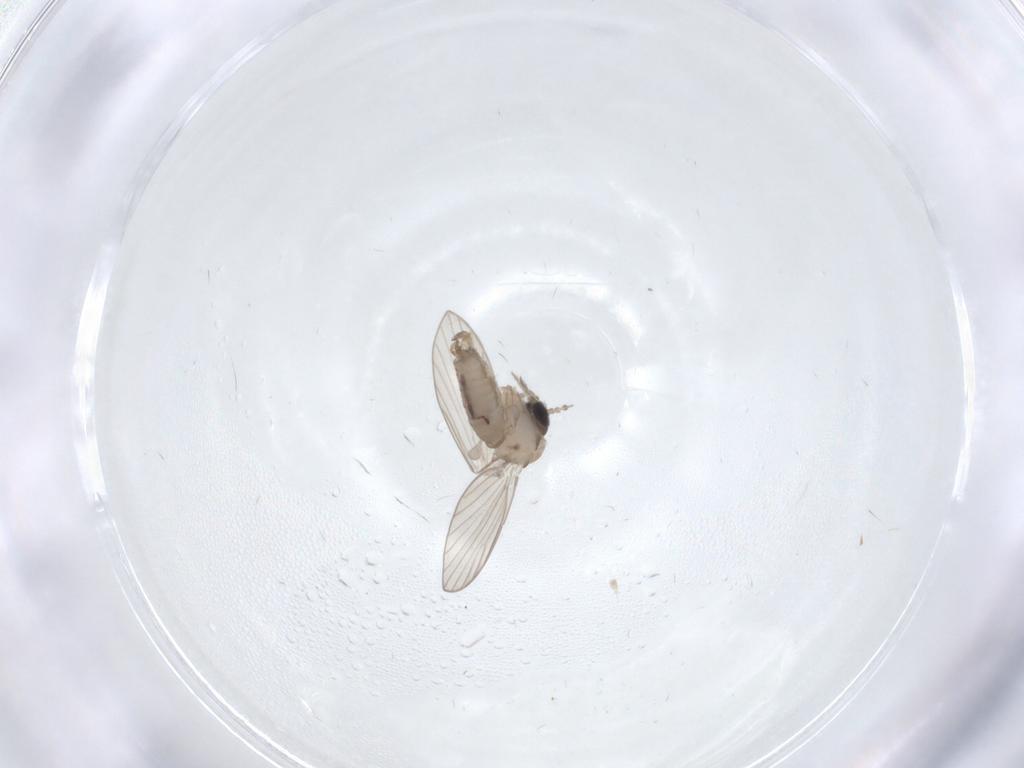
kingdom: Animalia
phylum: Arthropoda
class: Insecta
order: Diptera
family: Psychodidae
